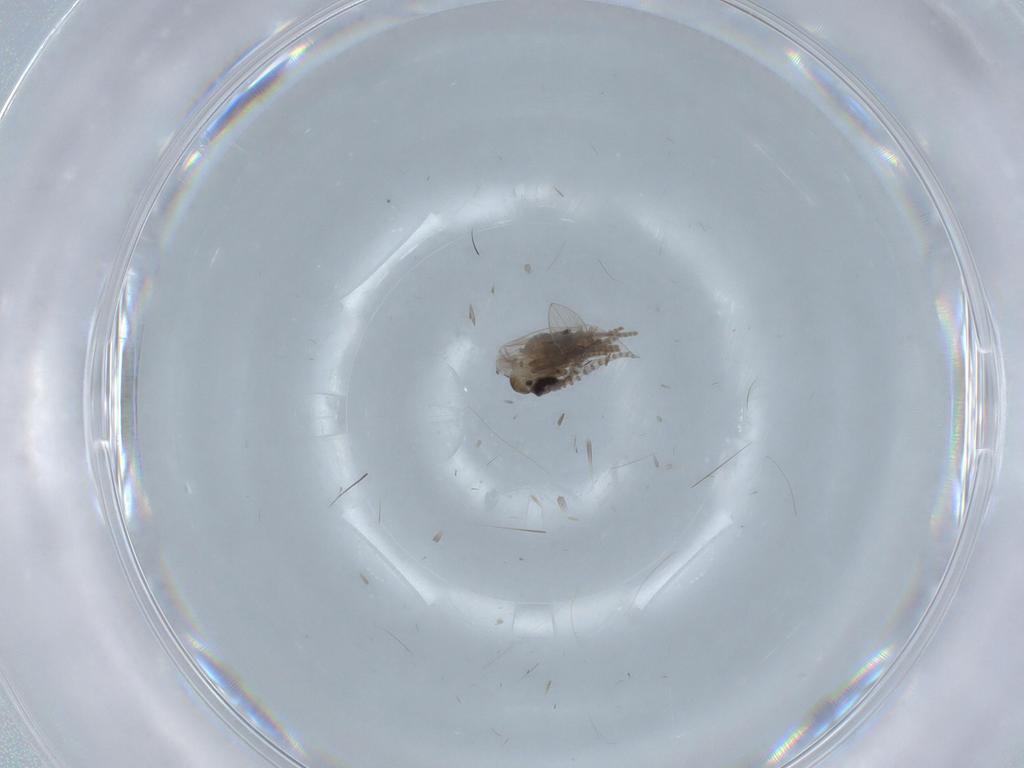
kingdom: Animalia
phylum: Arthropoda
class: Insecta
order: Diptera
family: Psychodidae
